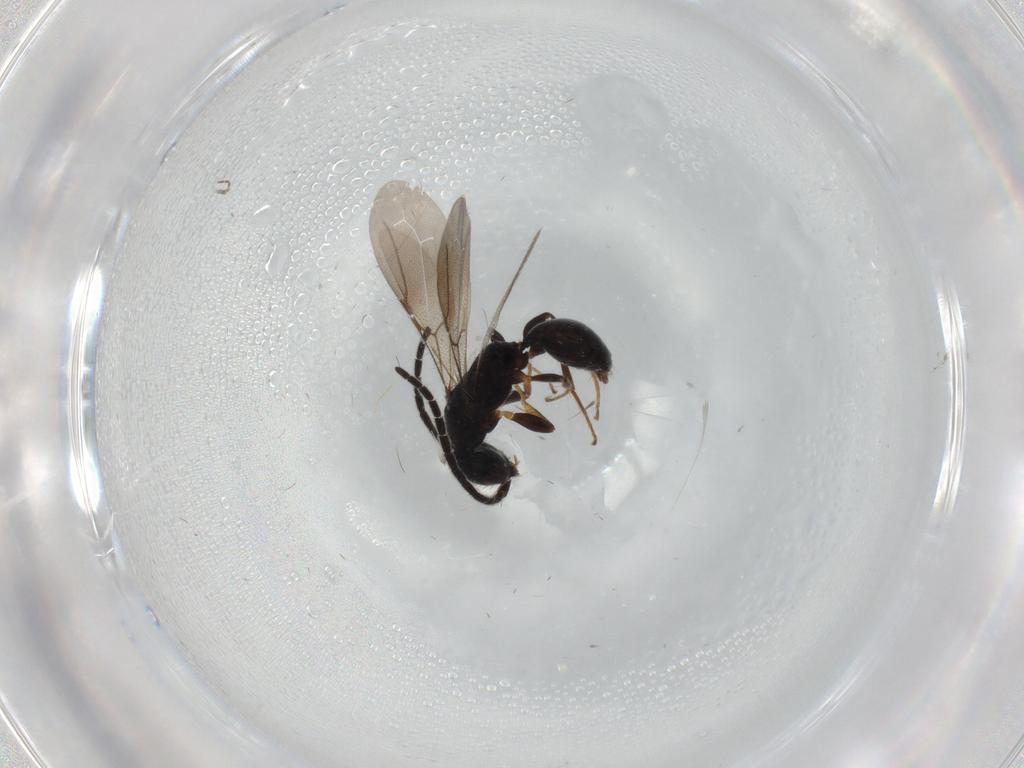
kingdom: Animalia
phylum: Arthropoda
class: Insecta
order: Hymenoptera
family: Bethylidae
